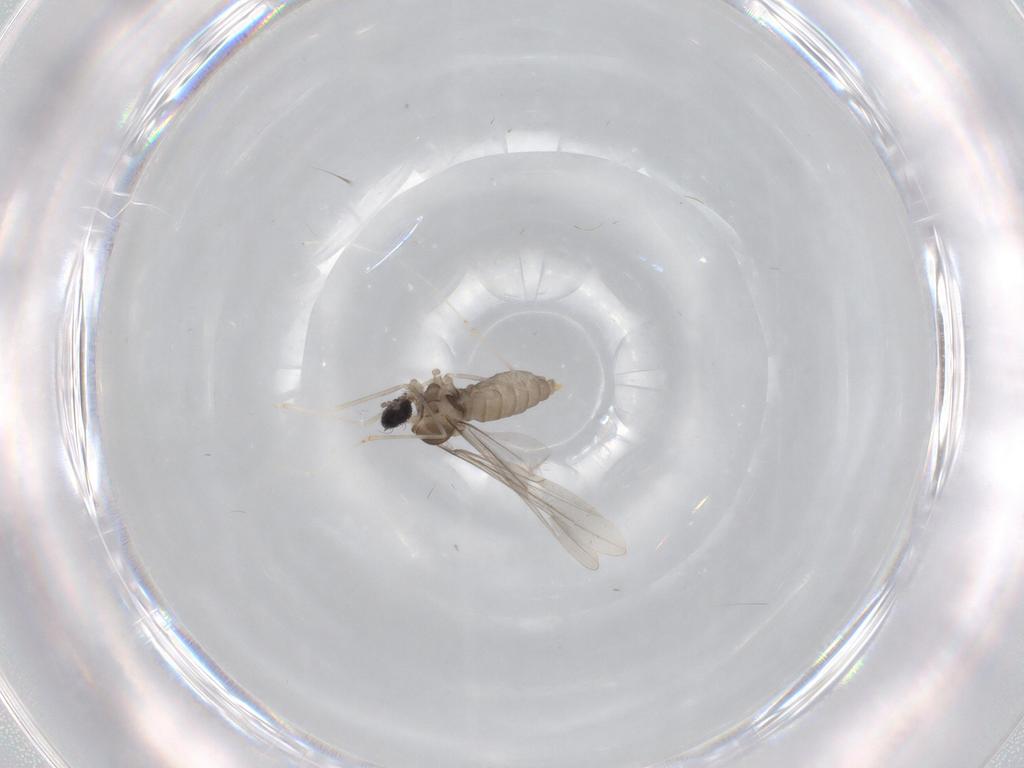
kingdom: Animalia
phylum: Arthropoda
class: Insecta
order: Diptera
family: Cecidomyiidae
